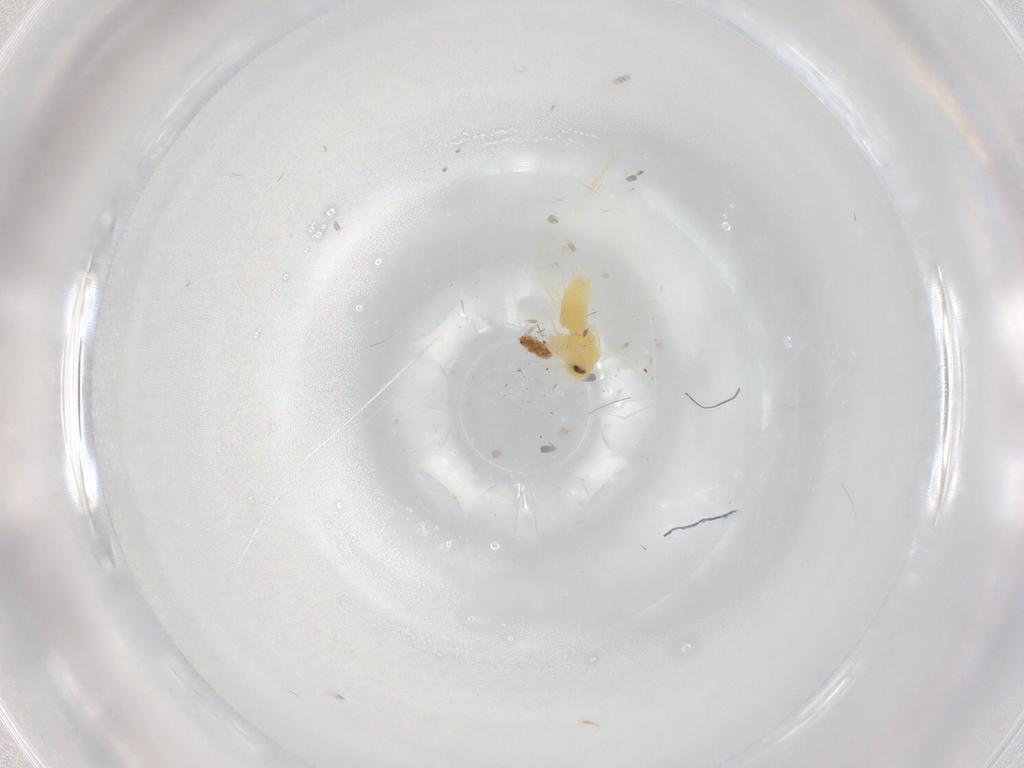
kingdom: Animalia
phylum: Arthropoda
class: Insecta
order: Hemiptera
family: Aleyrodidae
